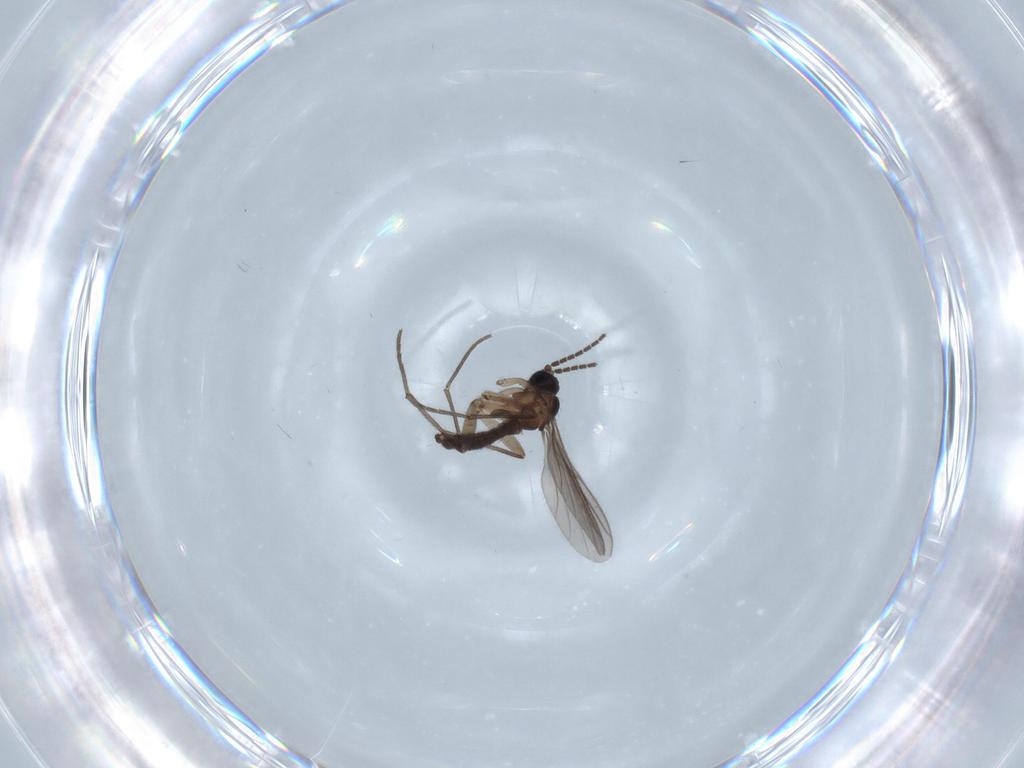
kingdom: Animalia
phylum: Arthropoda
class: Insecta
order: Diptera
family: Sciaridae
